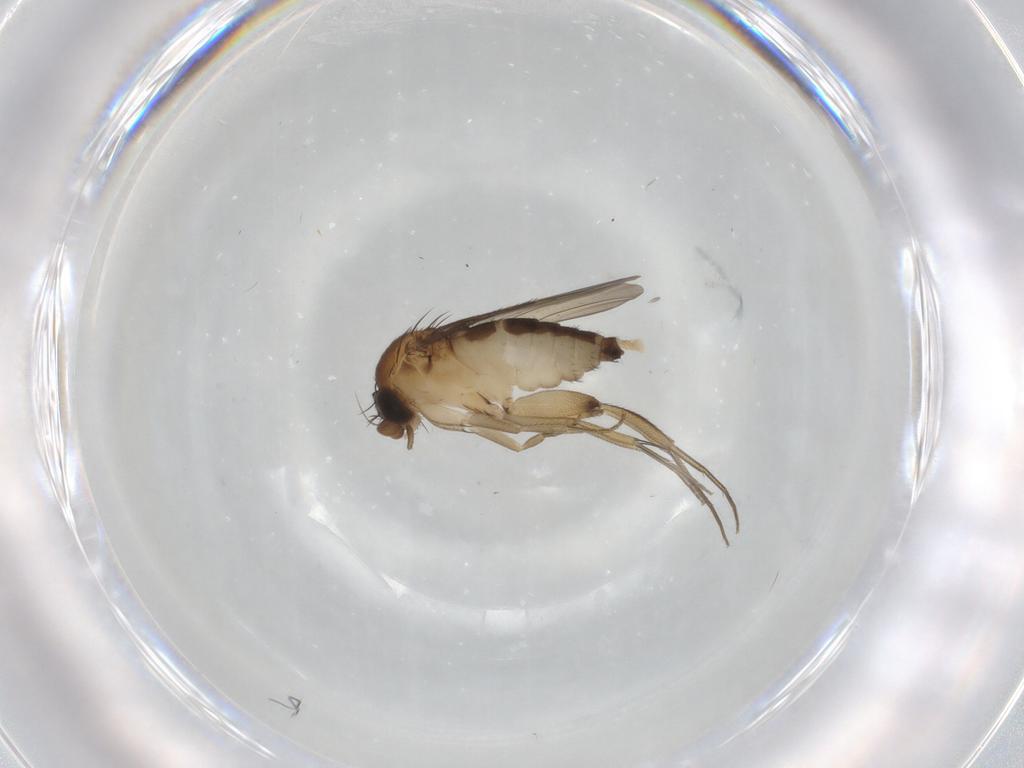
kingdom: Animalia
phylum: Arthropoda
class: Insecta
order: Diptera
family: Phoridae
